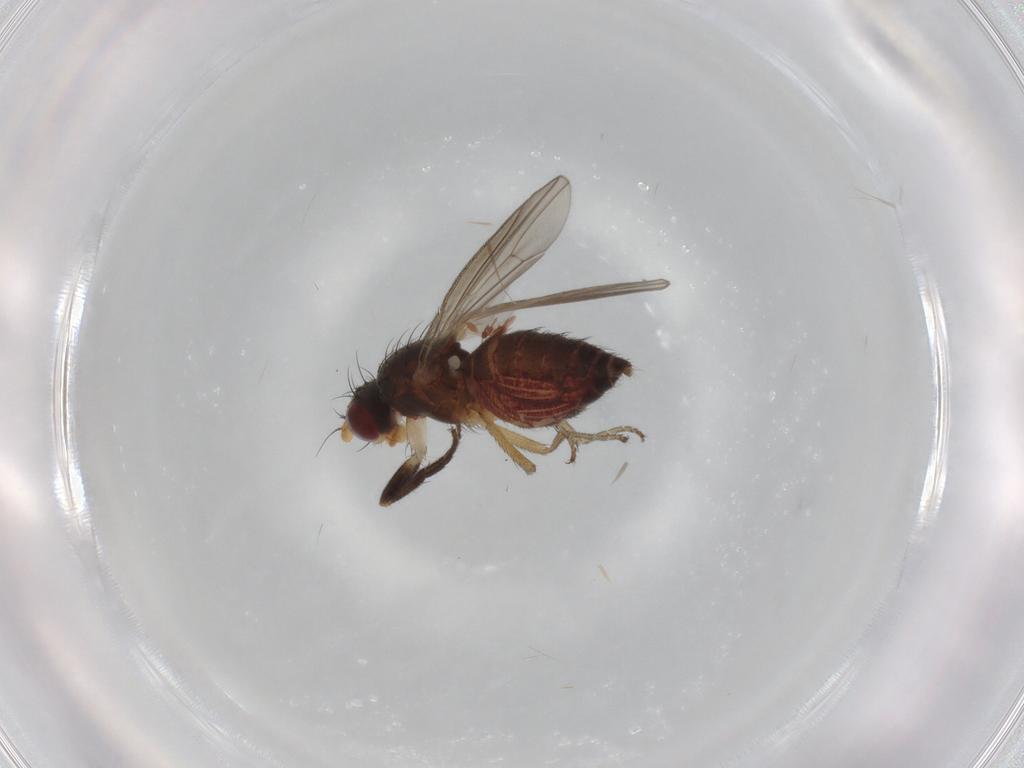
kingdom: Animalia
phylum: Arthropoda
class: Insecta
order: Diptera
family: Heleomyzidae
